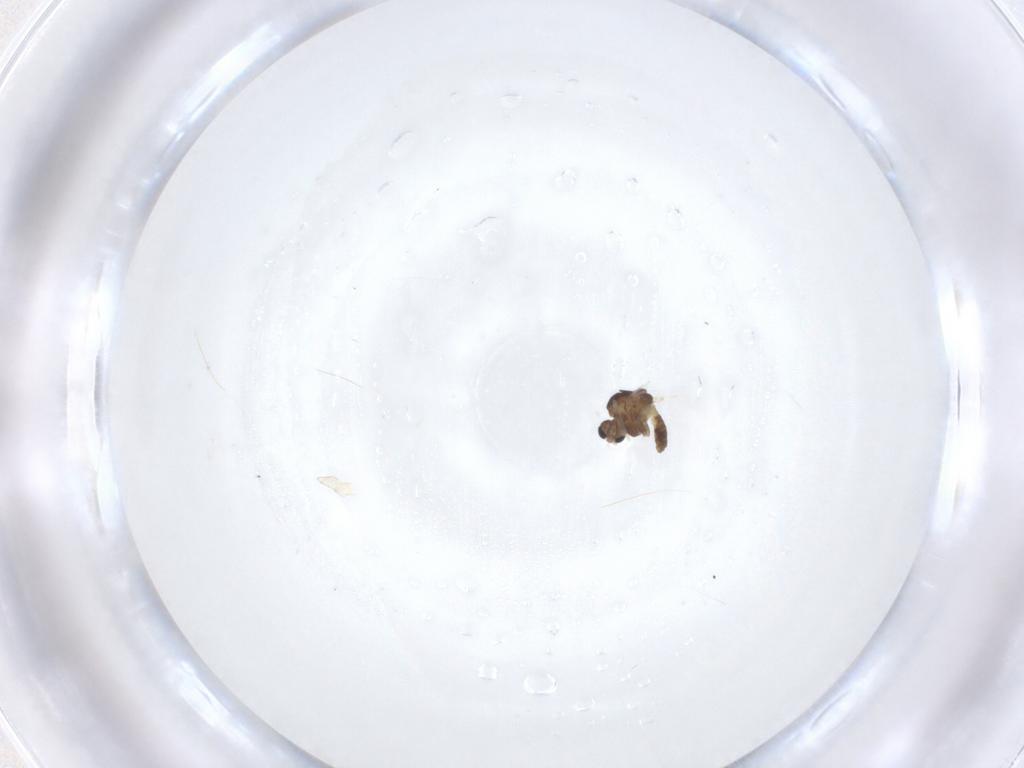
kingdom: Animalia
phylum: Arthropoda
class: Insecta
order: Diptera
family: Chironomidae
